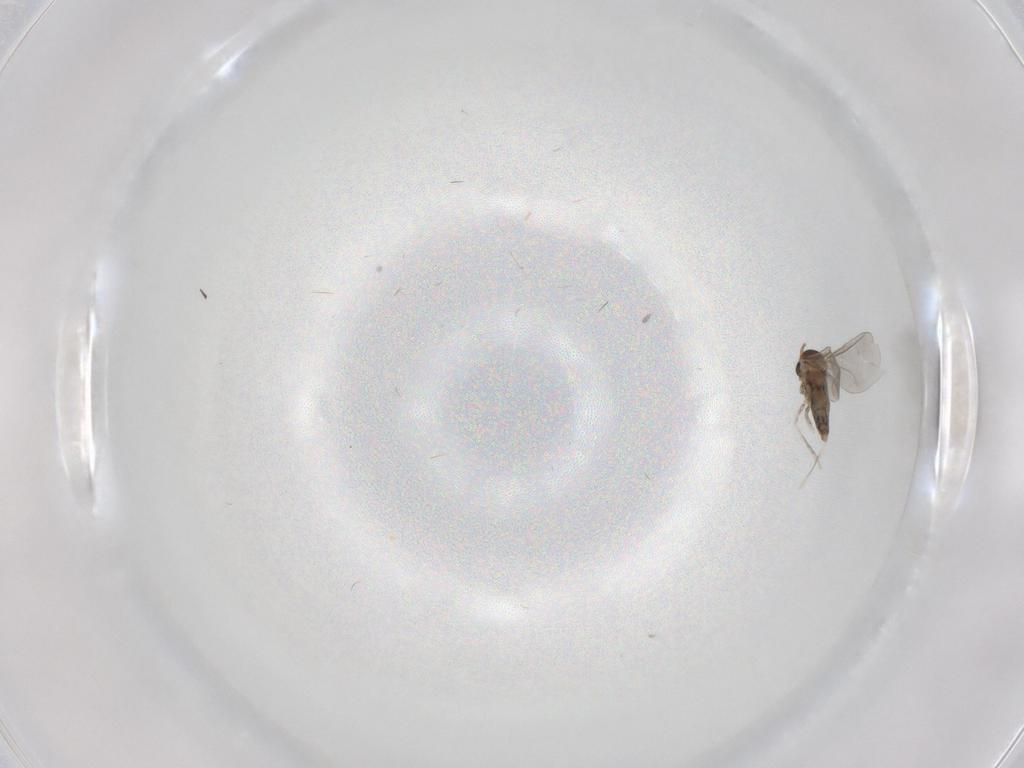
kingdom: Animalia
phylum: Arthropoda
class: Insecta
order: Diptera
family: Cecidomyiidae
